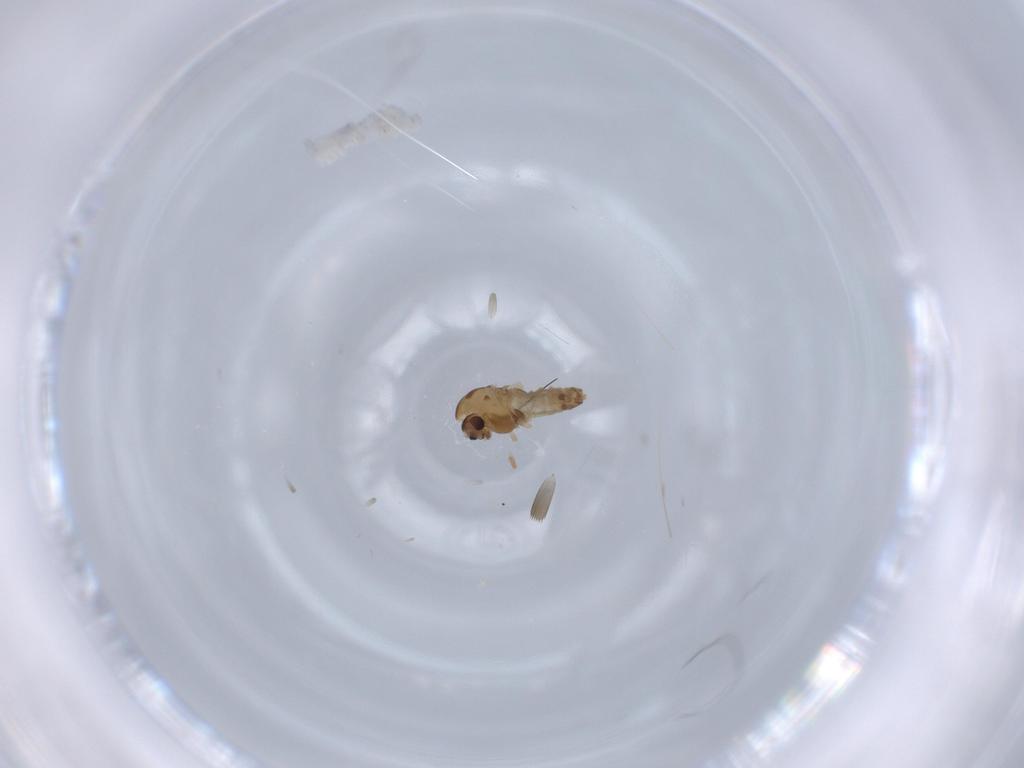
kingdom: Animalia
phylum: Arthropoda
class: Insecta
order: Diptera
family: Chironomidae
